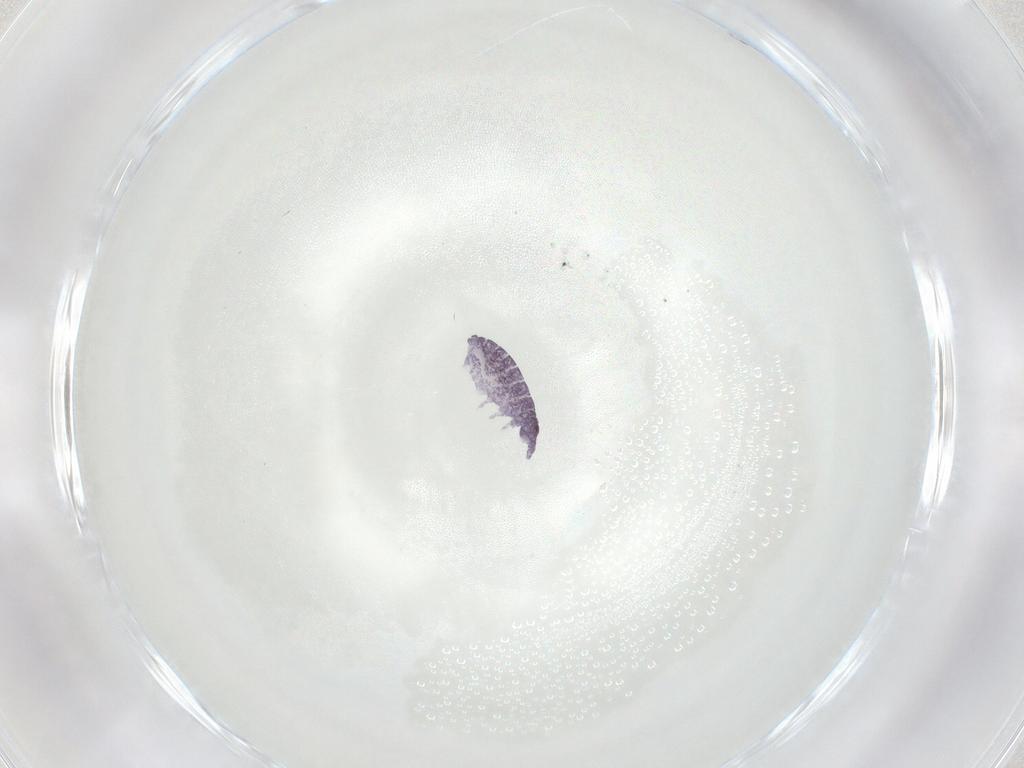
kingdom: Animalia
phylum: Arthropoda
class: Collembola
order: Poduromorpha
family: Brachystomellidae
